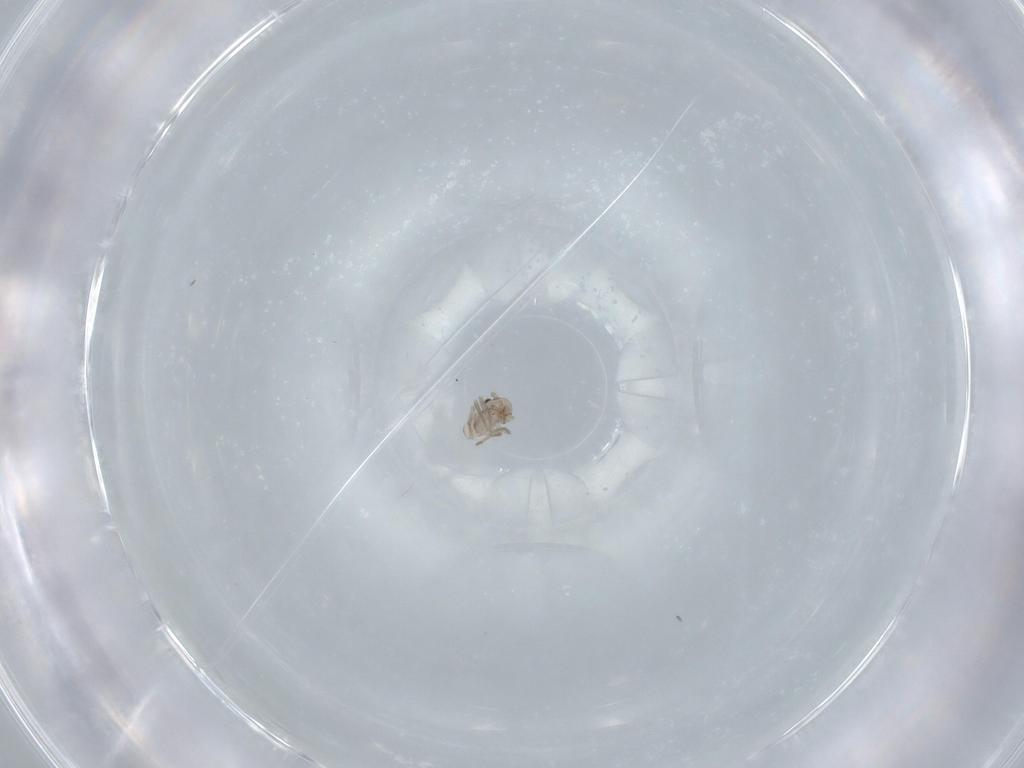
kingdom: Animalia
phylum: Arthropoda
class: Insecta
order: Psocodea
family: Ptiloneuridae
